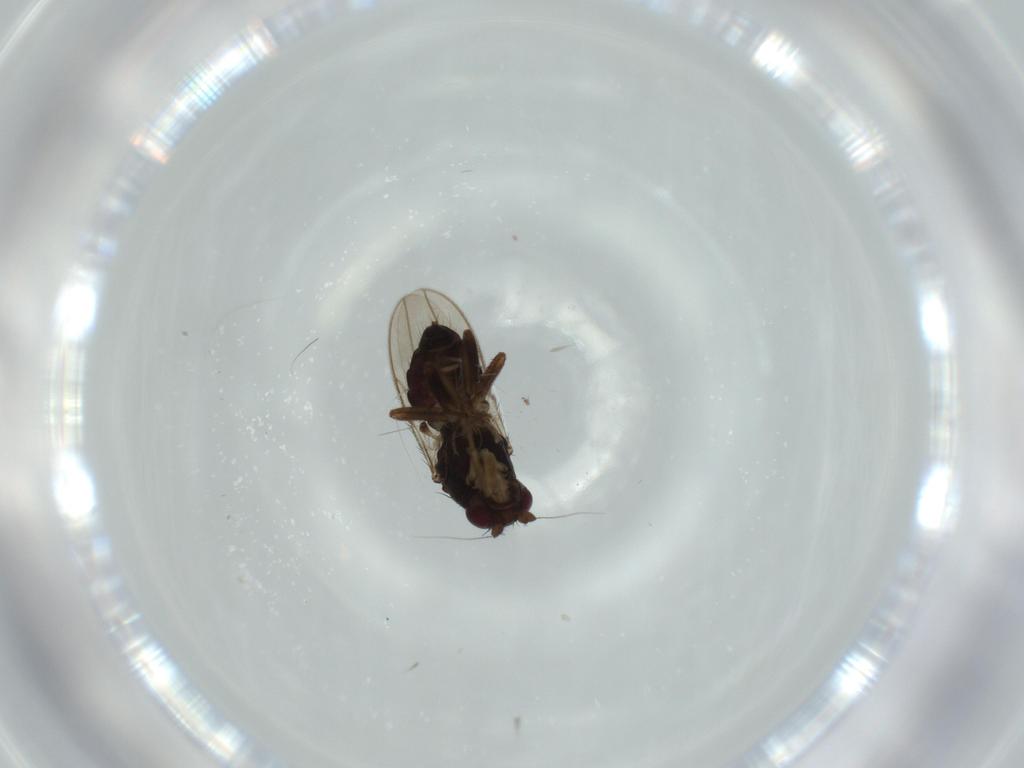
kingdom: Animalia
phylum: Arthropoda
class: Insecta
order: Diptera
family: Sphaeroceridae
